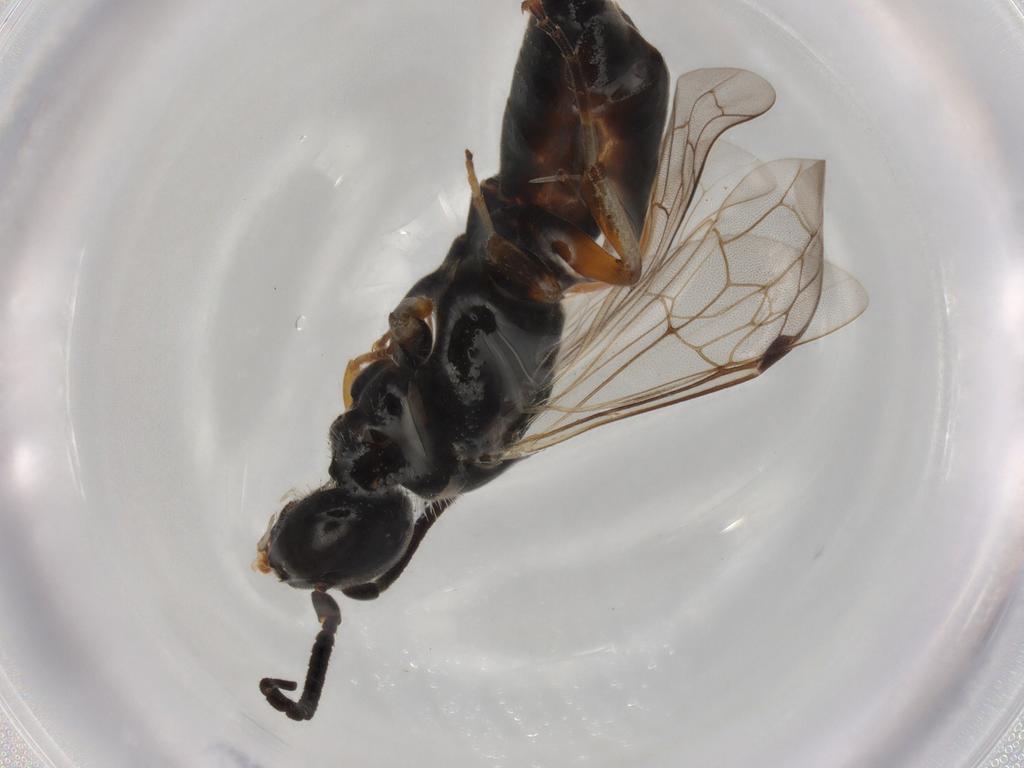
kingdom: Animalia
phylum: Arthropoda
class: Insecta
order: Hymenoptera
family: Thynnidae
